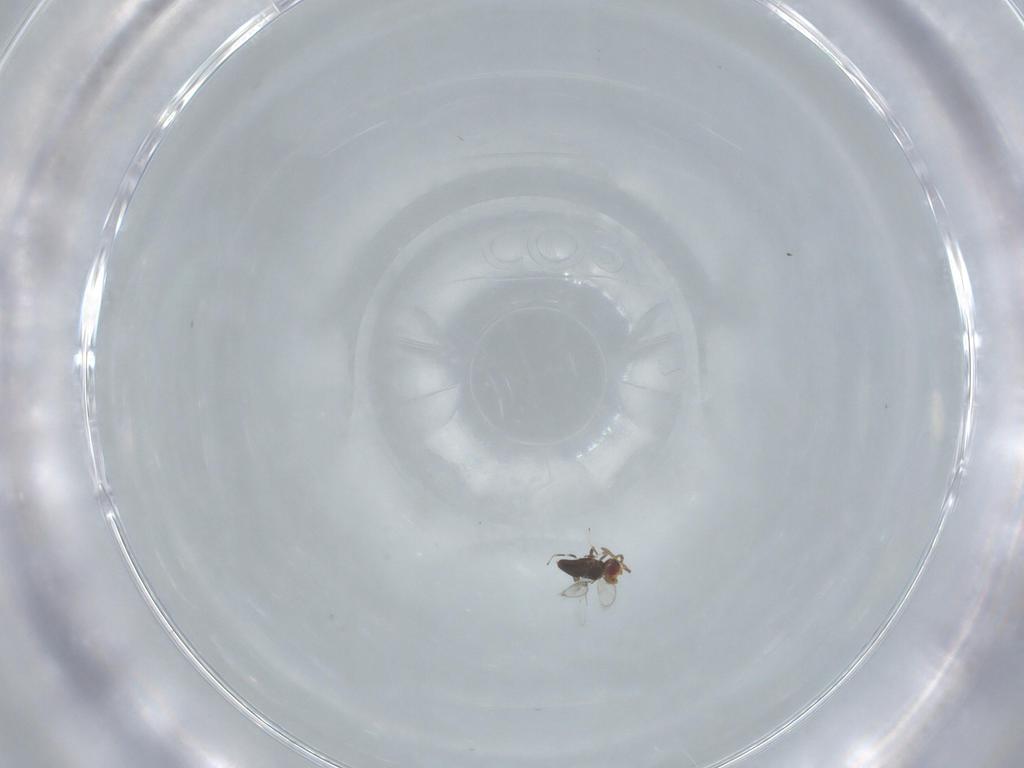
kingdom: Animalia
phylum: Arthropoda
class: Insecta
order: Hymenoptera
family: Azotidae
